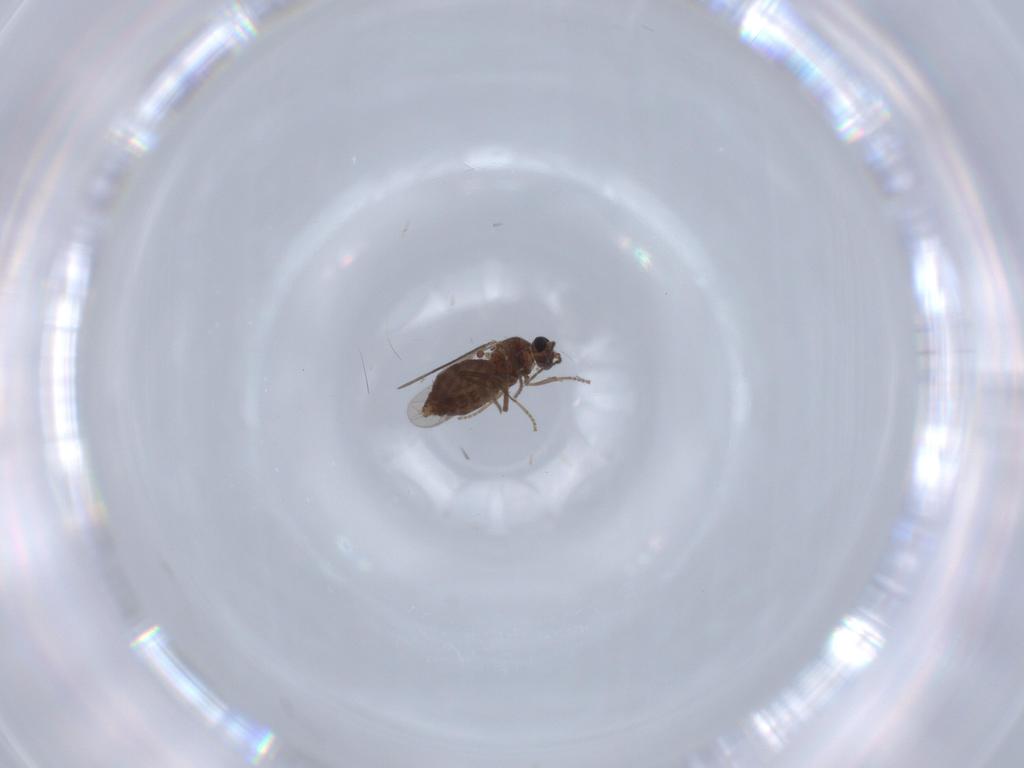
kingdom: Animalia
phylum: Arthropoda
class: Insecta
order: Diptera
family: Ceratopogonidae
